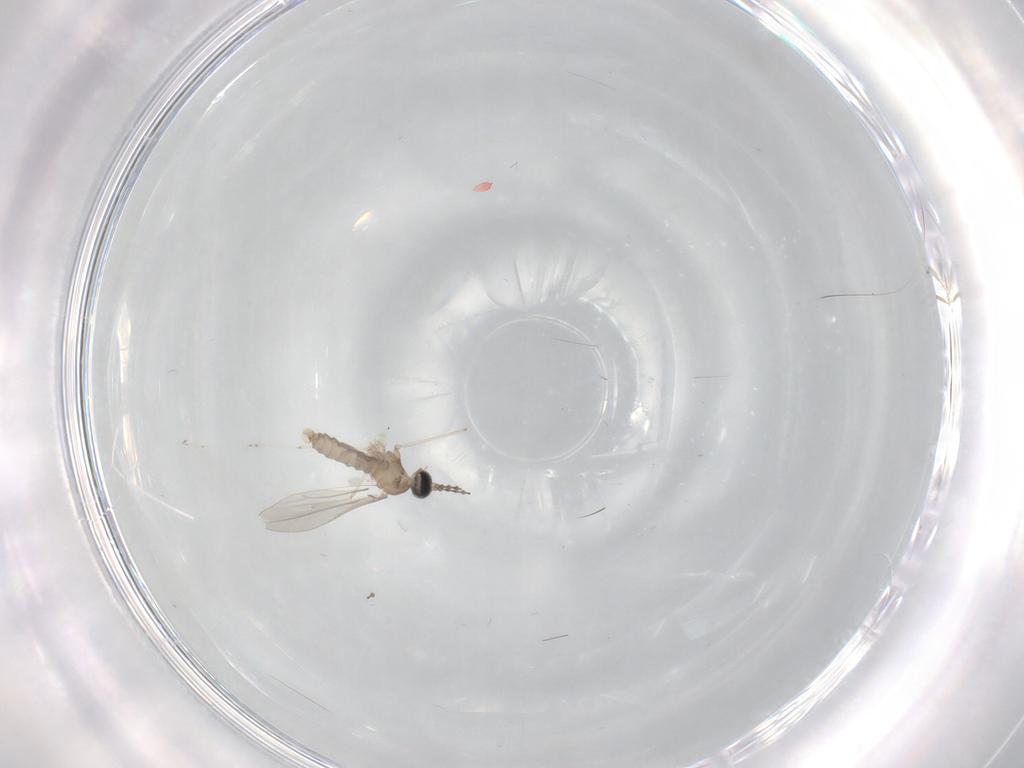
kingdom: Animalia
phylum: Arthropoda
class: Insecta
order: Diptera
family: Cecidomyiidae
